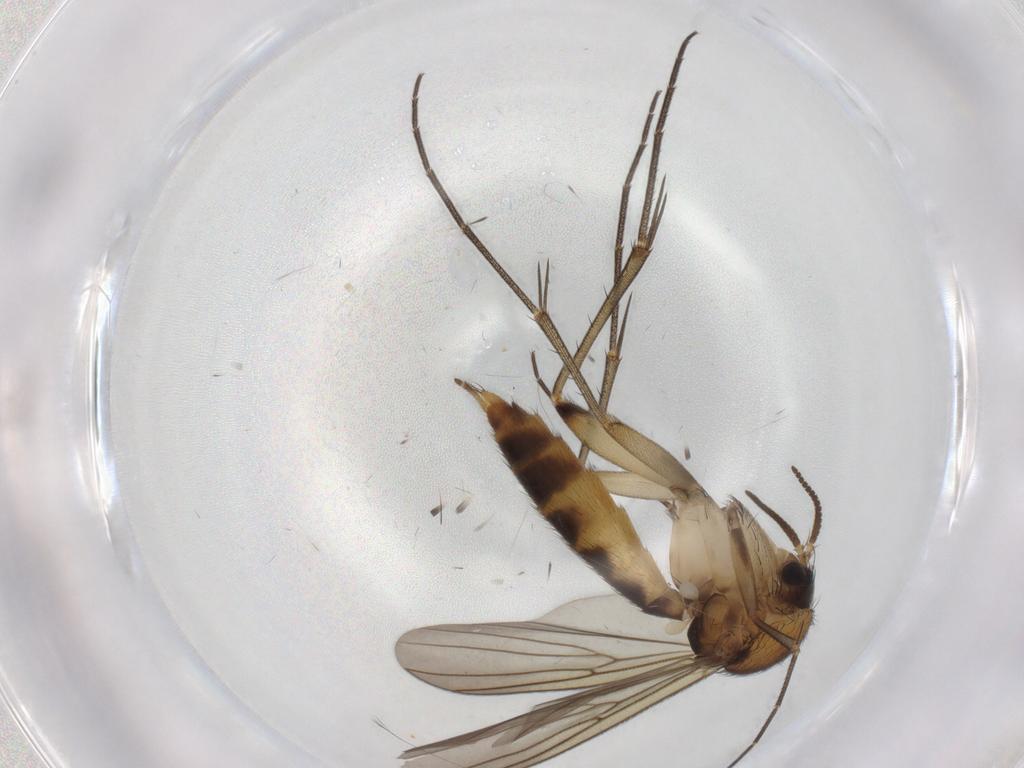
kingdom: Animalia
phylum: Arthropoda
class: Insecta
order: Diptera
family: Mycetophilidae
